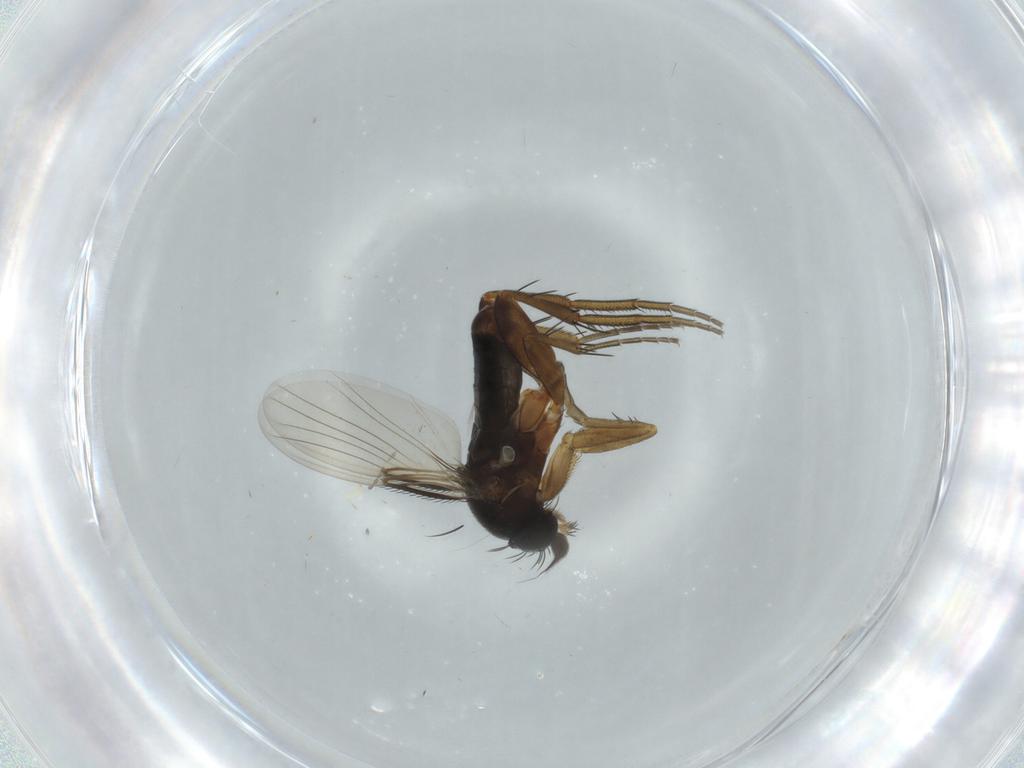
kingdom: Animalia
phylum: Arthropoda
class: Insecta
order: Diptera
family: Phoridae
